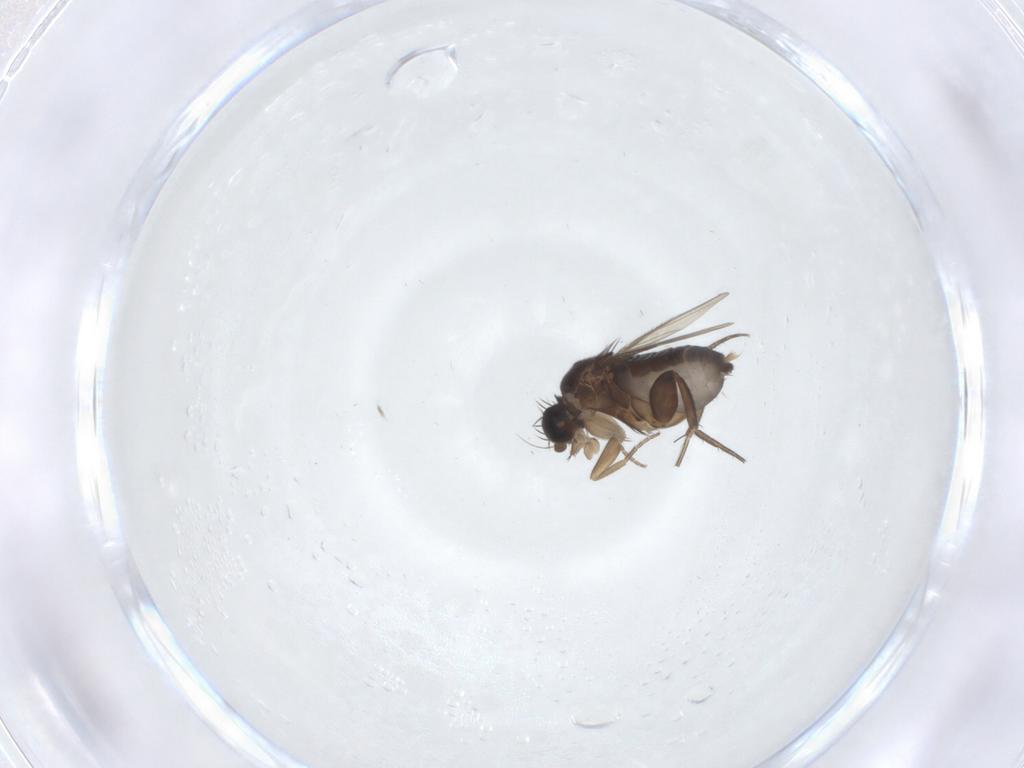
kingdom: Animalia
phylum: Arthropoda
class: Insecta
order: Diptera
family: Phoridae
